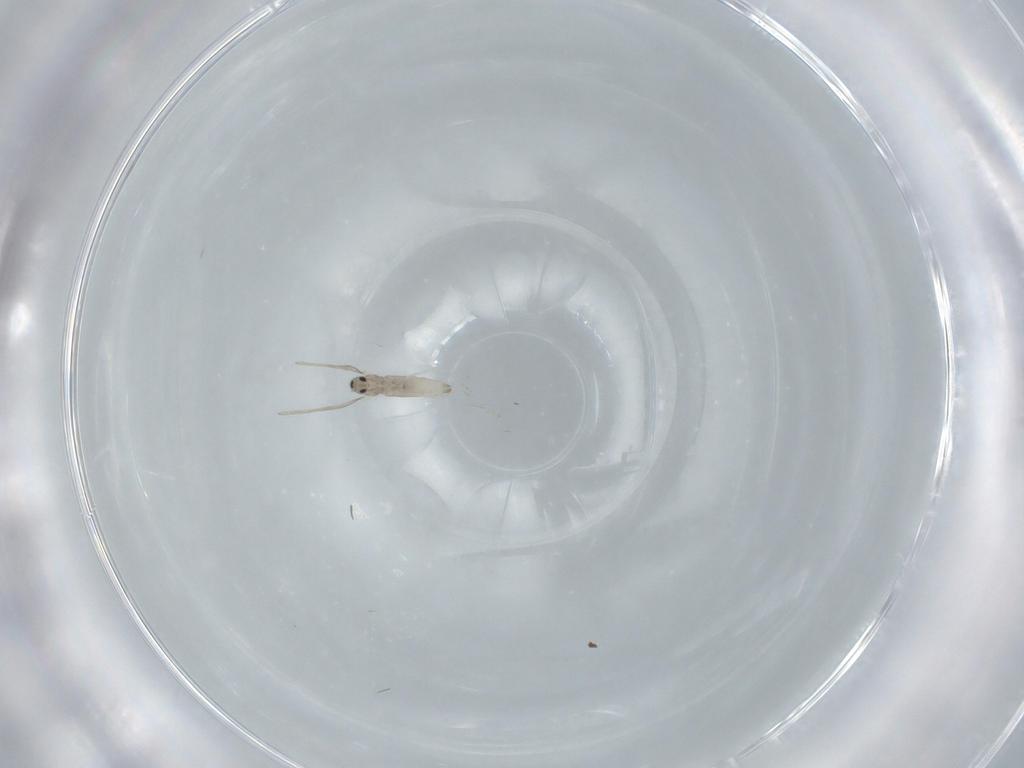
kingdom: Animalia
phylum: Arthropoda
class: Insecta
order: Diptera
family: Cecidomyiidae
